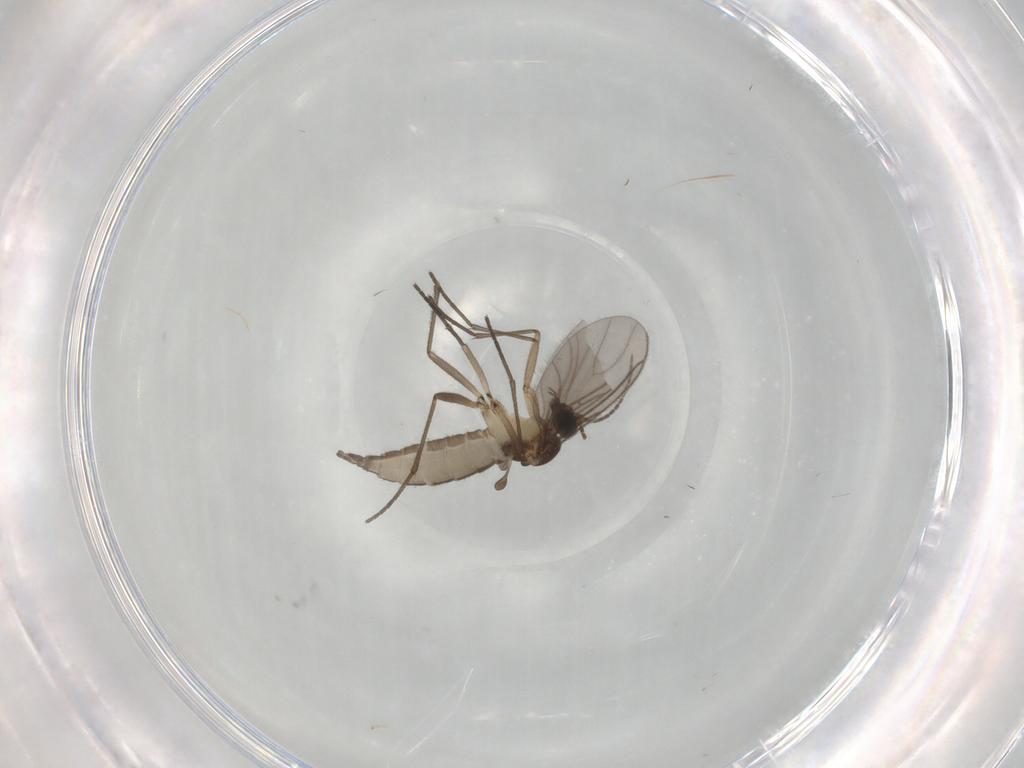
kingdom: Animalia
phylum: Arthropoda
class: Insecta
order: Diptera
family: Sciaridae
